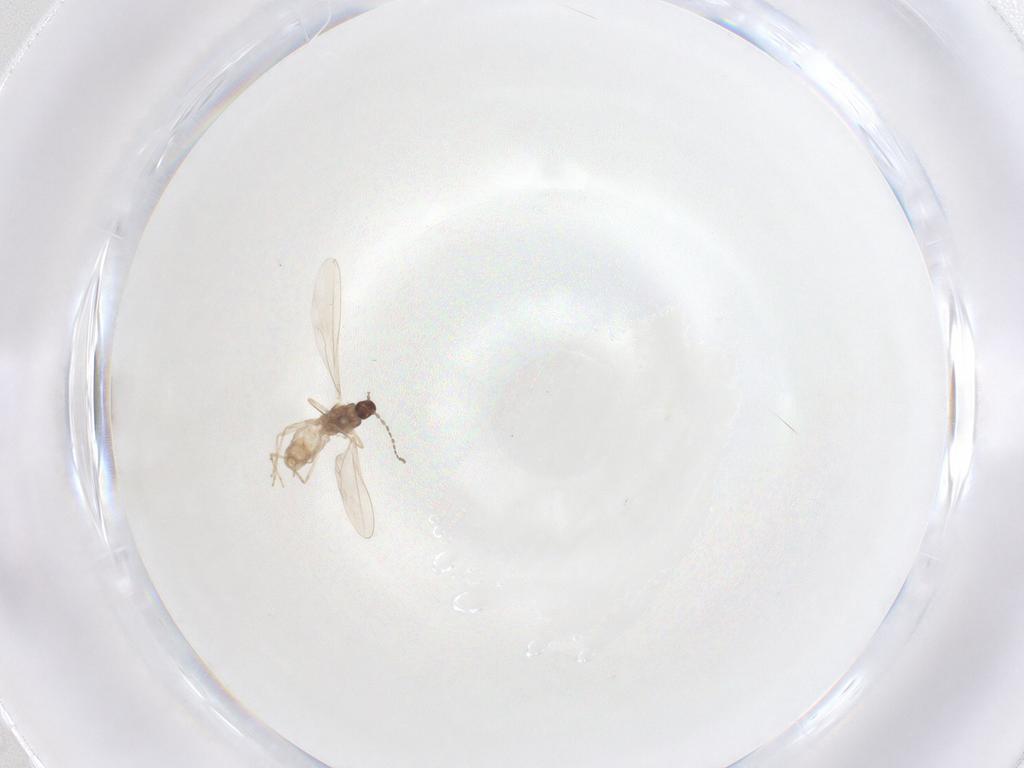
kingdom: Animalia
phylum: Arthropoda
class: Insecta
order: Diptera
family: Cecidomyiidae
